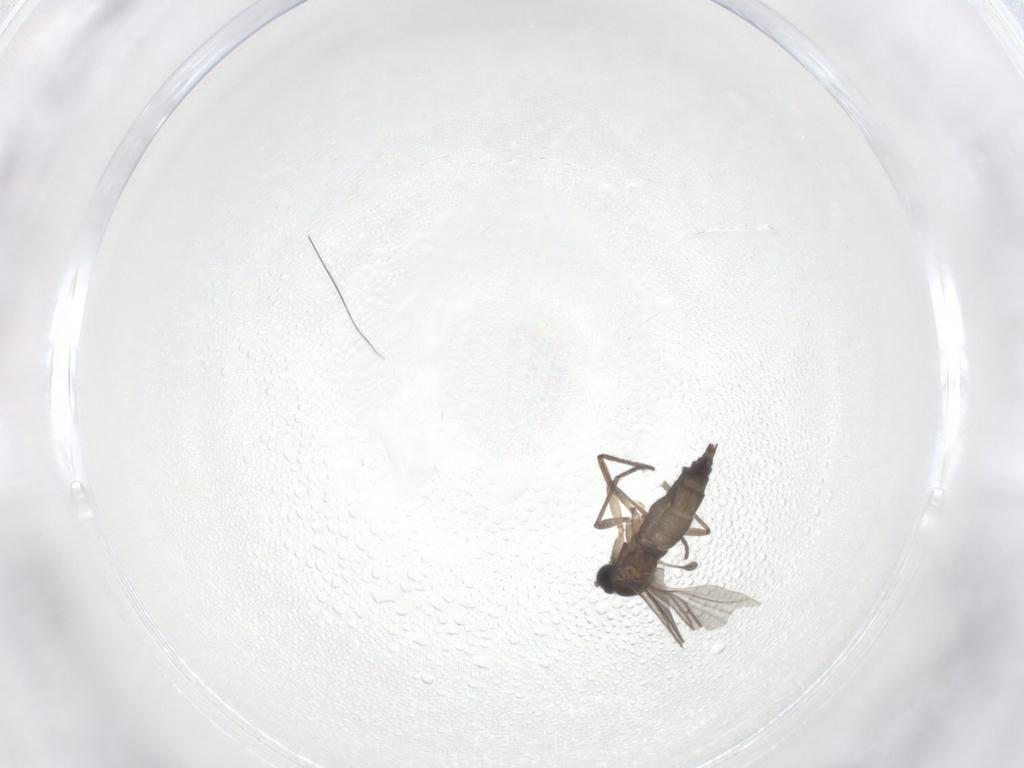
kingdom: Animalia
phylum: Arthropoda
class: Insecta
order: Diptera
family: Sciaridae
